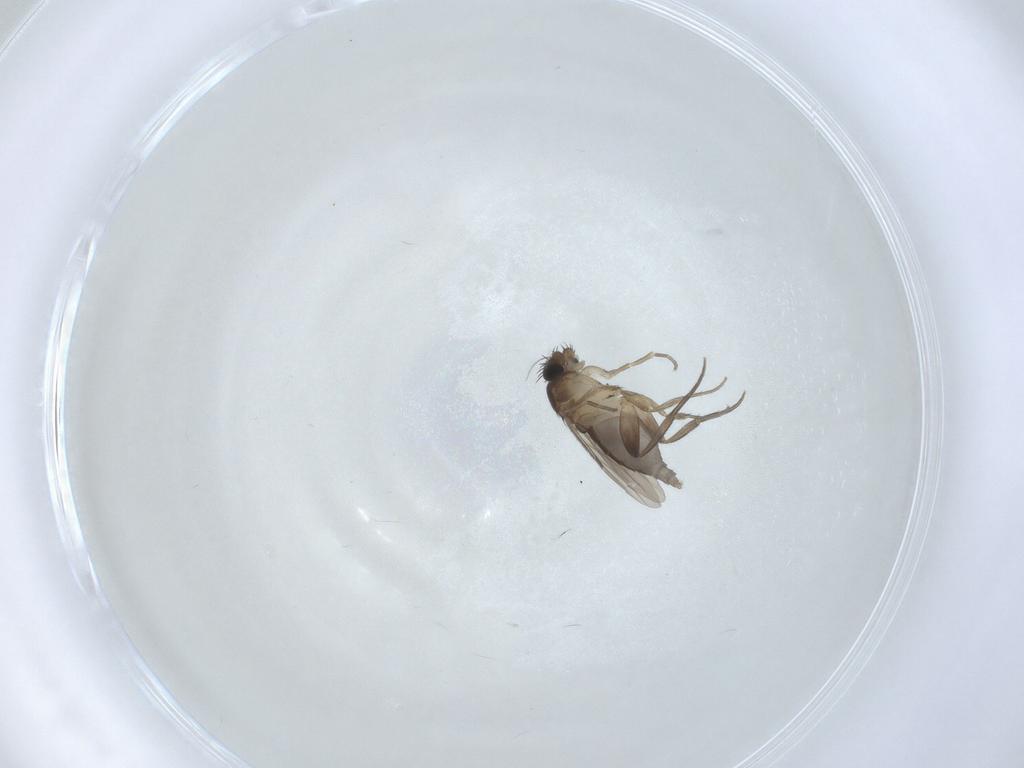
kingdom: Animalia
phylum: Arthropoda
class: Insecta
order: Diptera
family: Phoridae
